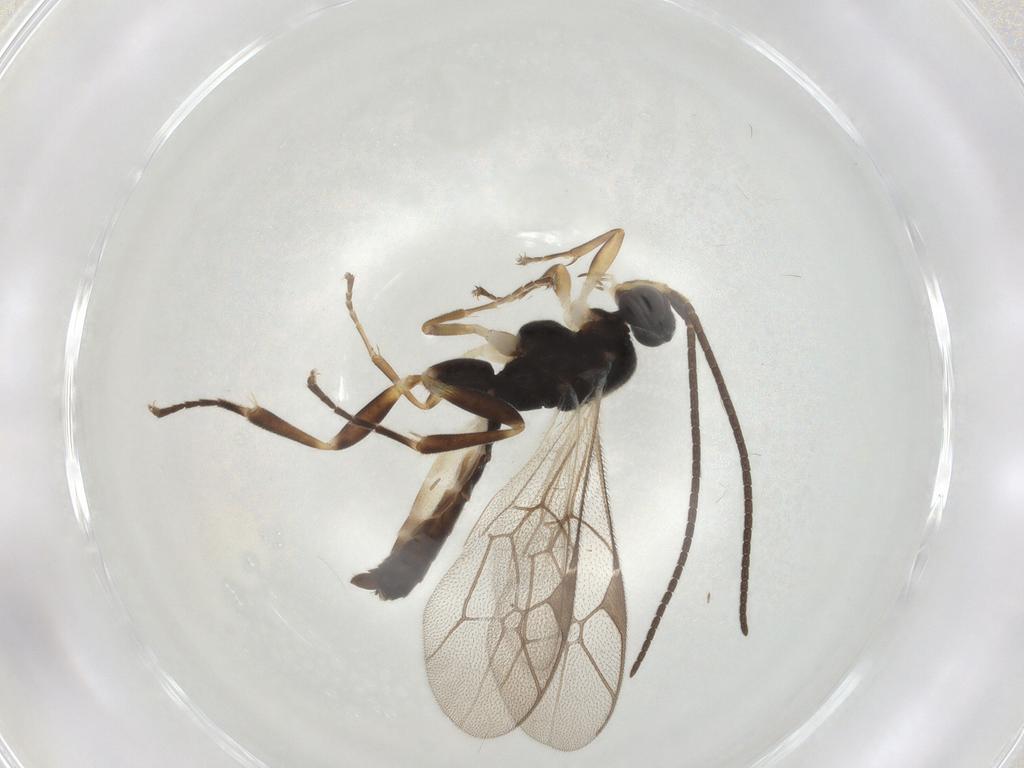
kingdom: Animalia
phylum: Arthropoda
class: Insecta
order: Hymenoptera
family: Ichneumonidae
